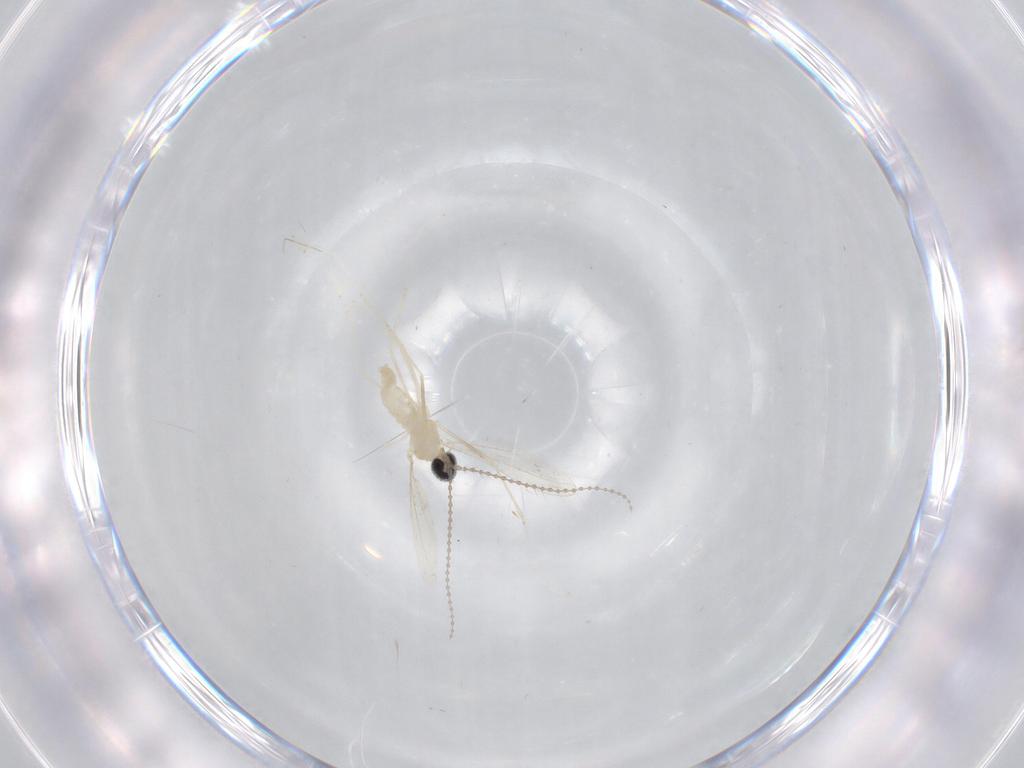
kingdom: Animalia
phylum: Arthropoda
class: Insecta
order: Diptera
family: Cecidomyiidae
